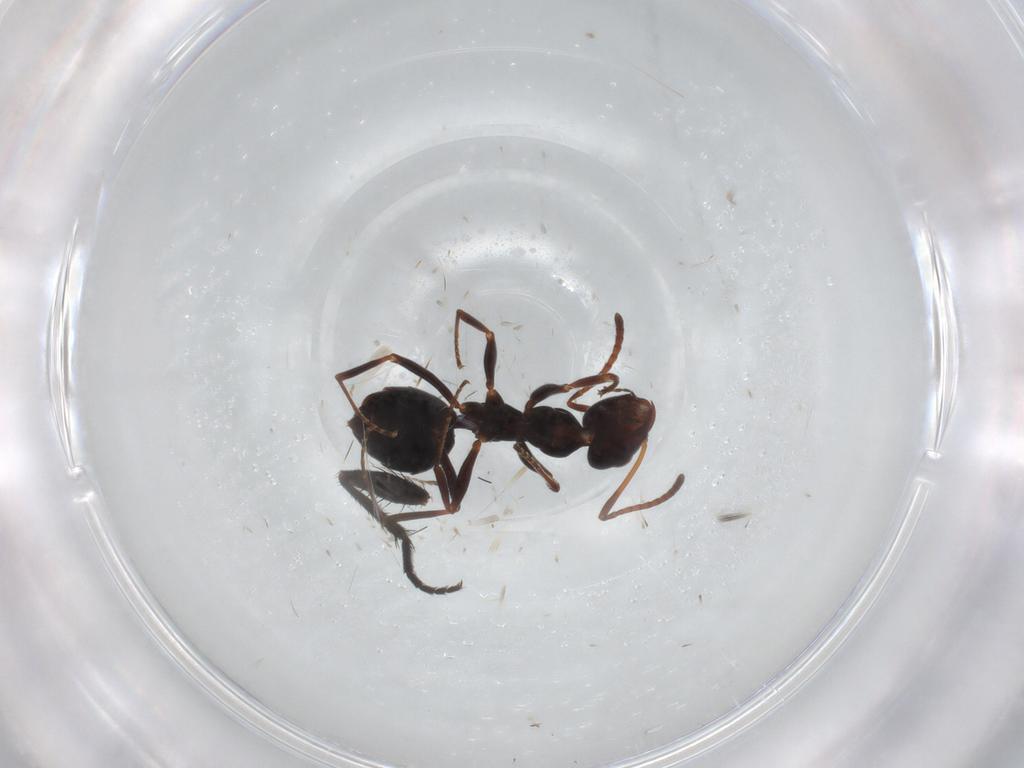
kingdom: Animalia
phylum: Arthropoda
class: Insecta
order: Hymenoptera
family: Formicidae
